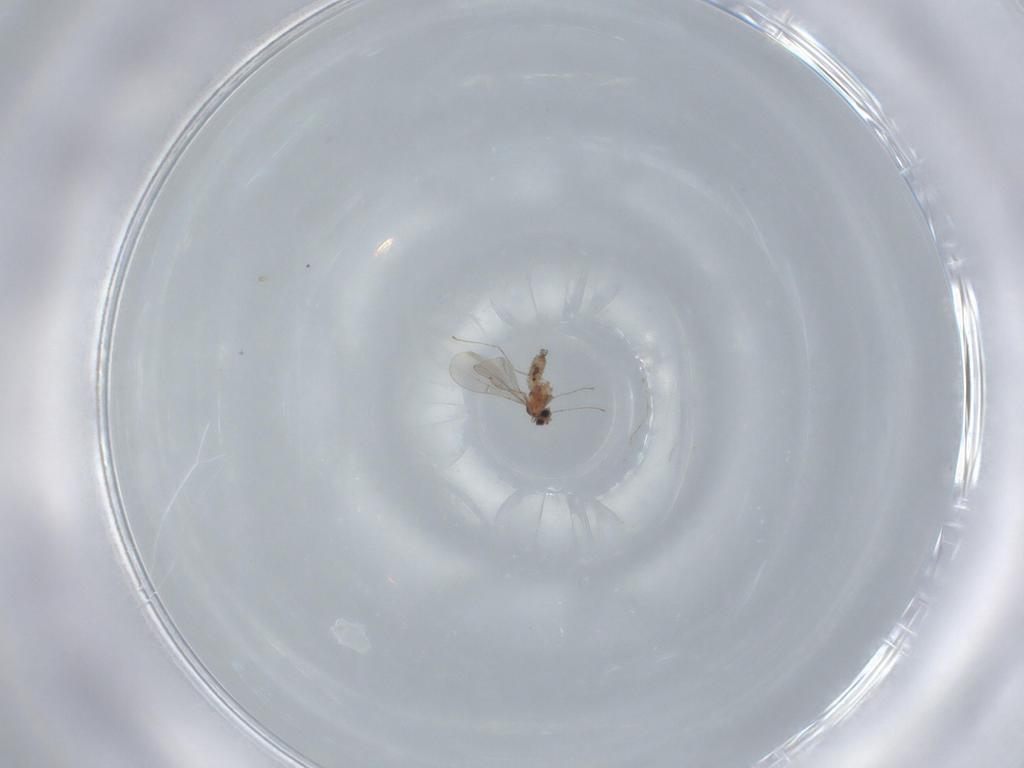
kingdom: Animalia
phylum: Arthropoda
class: Insecta
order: Diptera
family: Cecidomyiidae
